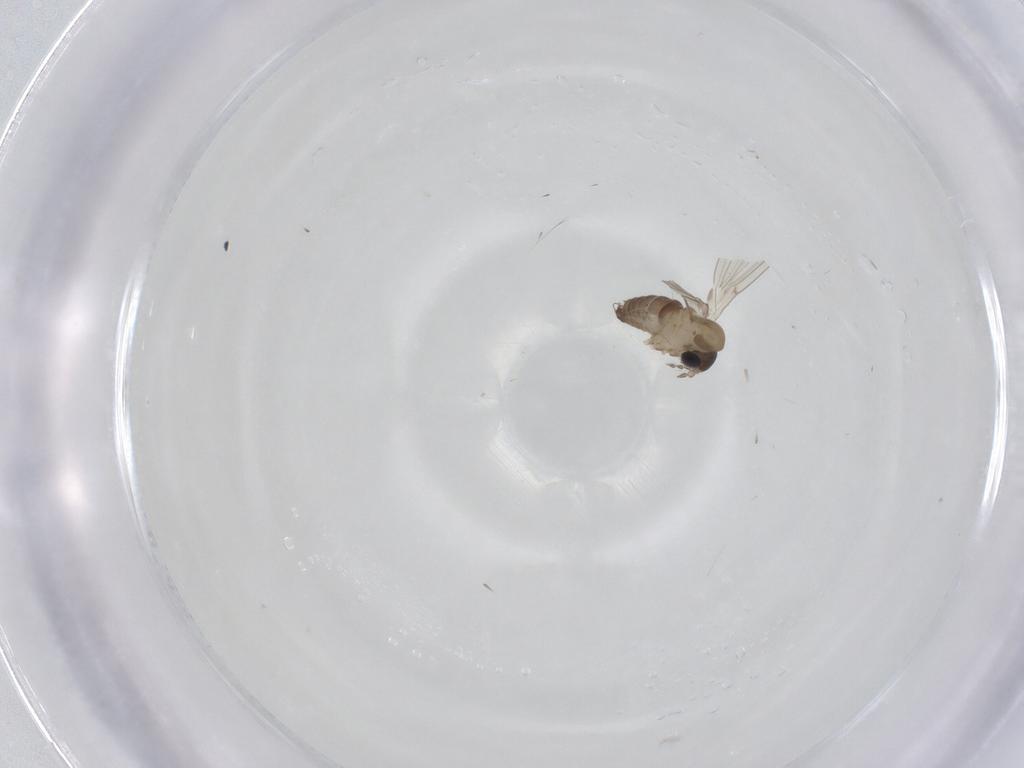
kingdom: Animalia
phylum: Arthropoda
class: Insecta
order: Diptera
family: Psychodidae
